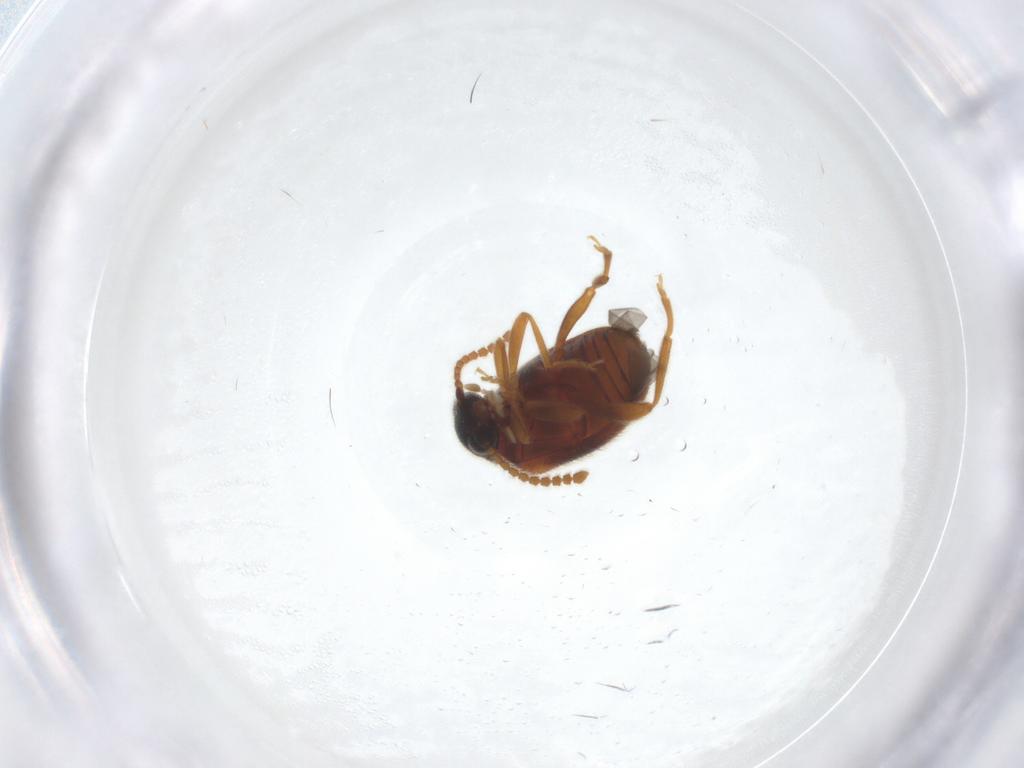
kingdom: Animalia
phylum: Arthropoda
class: Insecta
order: Coleoptera
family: Aderidae
